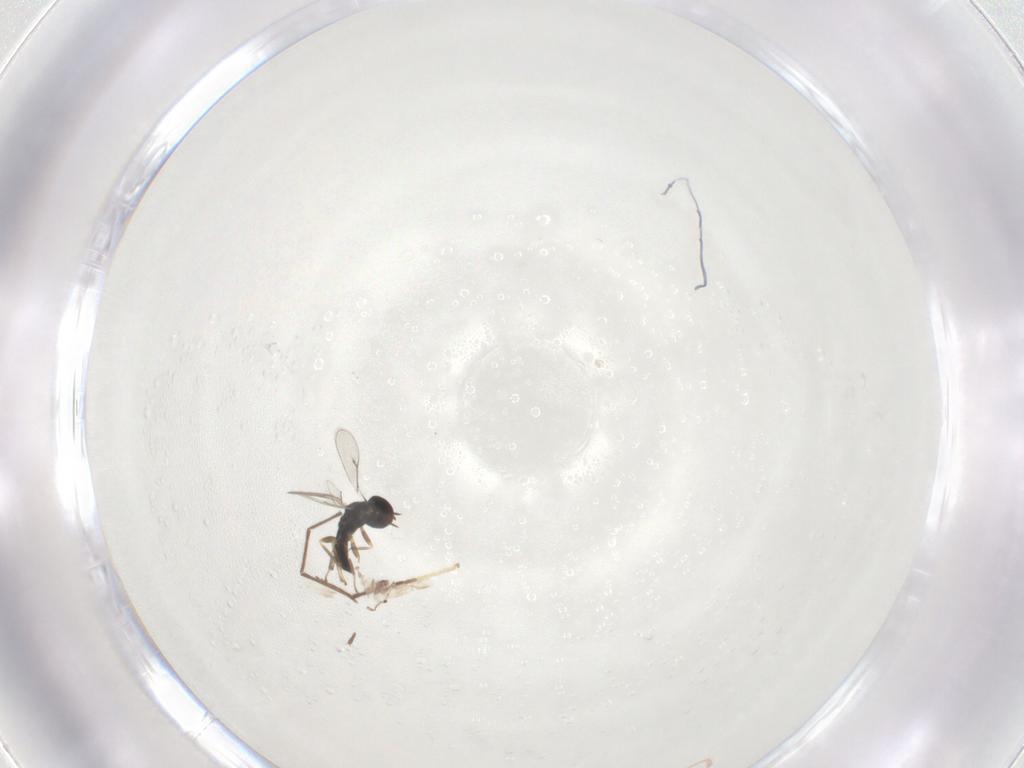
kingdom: Animalia
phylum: Arthropoda
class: Insecta
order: Hymenoptera
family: Eulophidae
